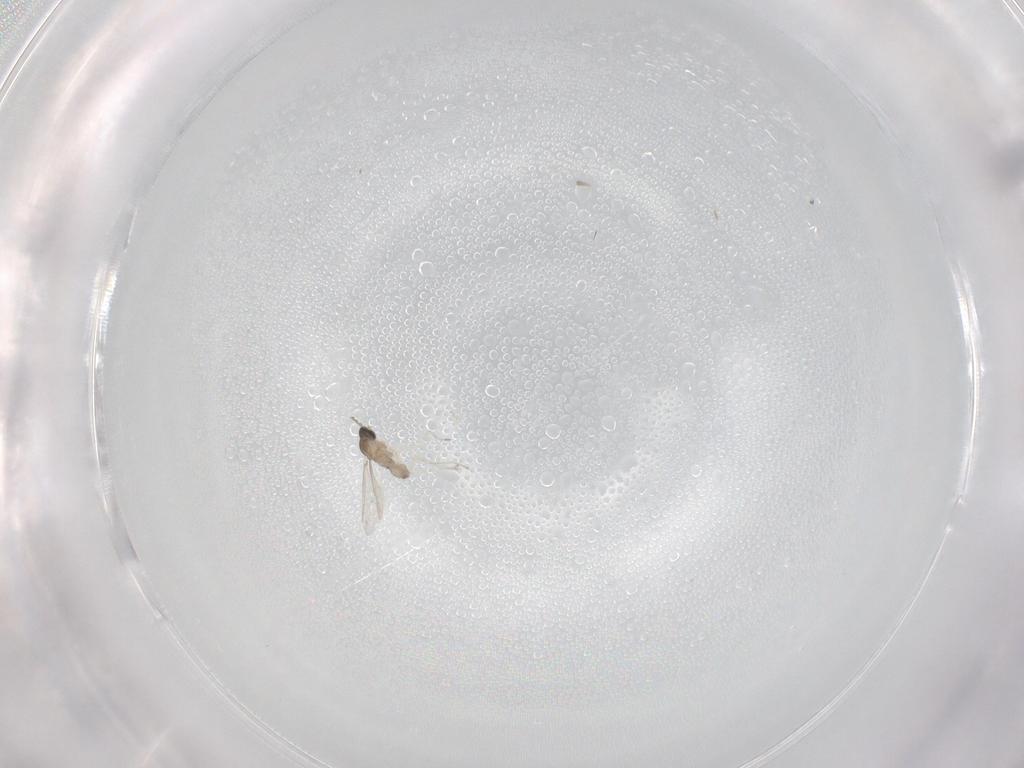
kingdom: Animalia
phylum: Arthropoda
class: Insecta
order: Diptera
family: Cecidomyiidae
